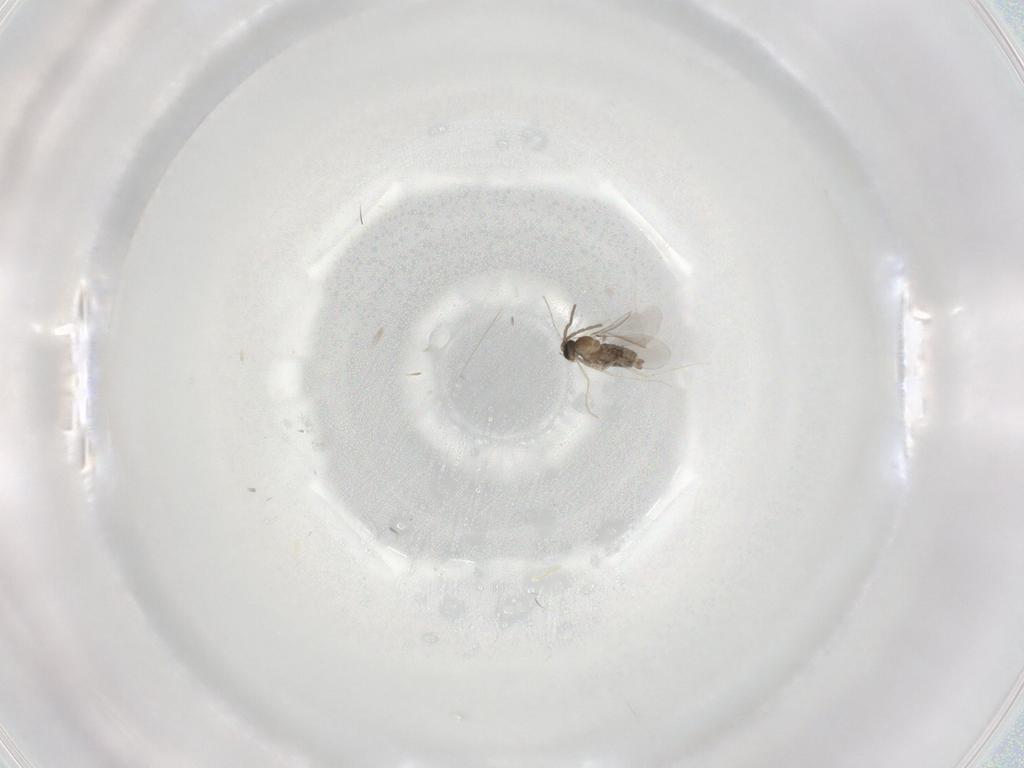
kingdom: Animalia
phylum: Arthropoda
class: Insecta
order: Diptera
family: Cecidomyiidae
